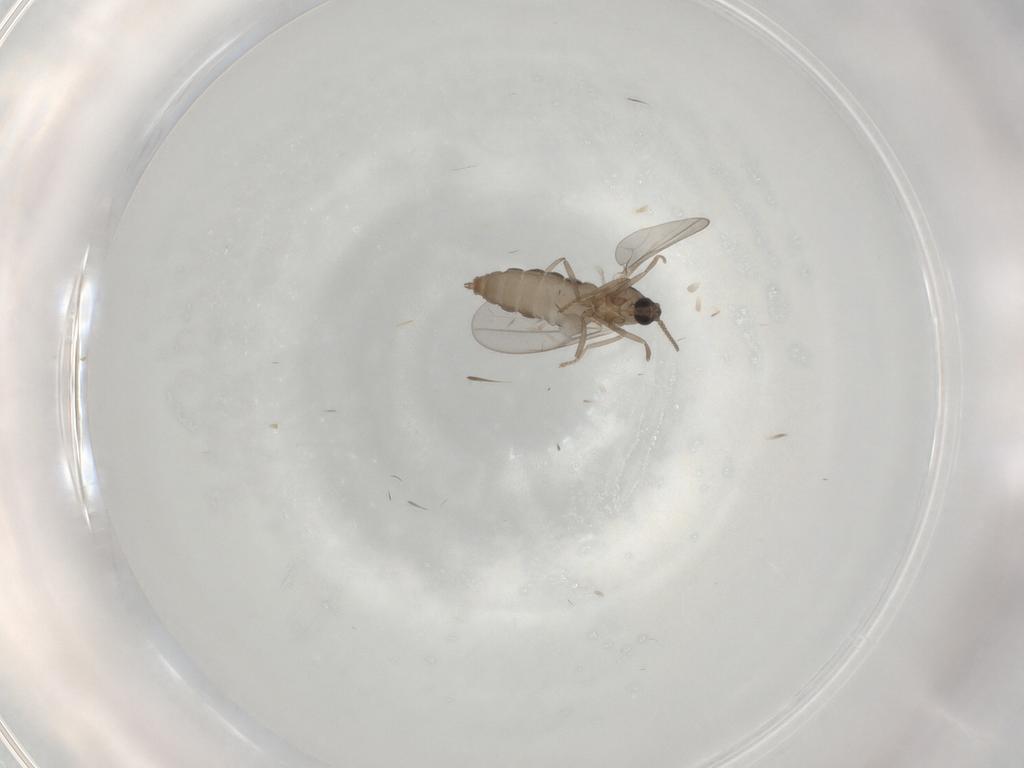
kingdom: Animalia
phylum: Arthropoda
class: Insecta
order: Diptera
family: Cecidomyiidae
